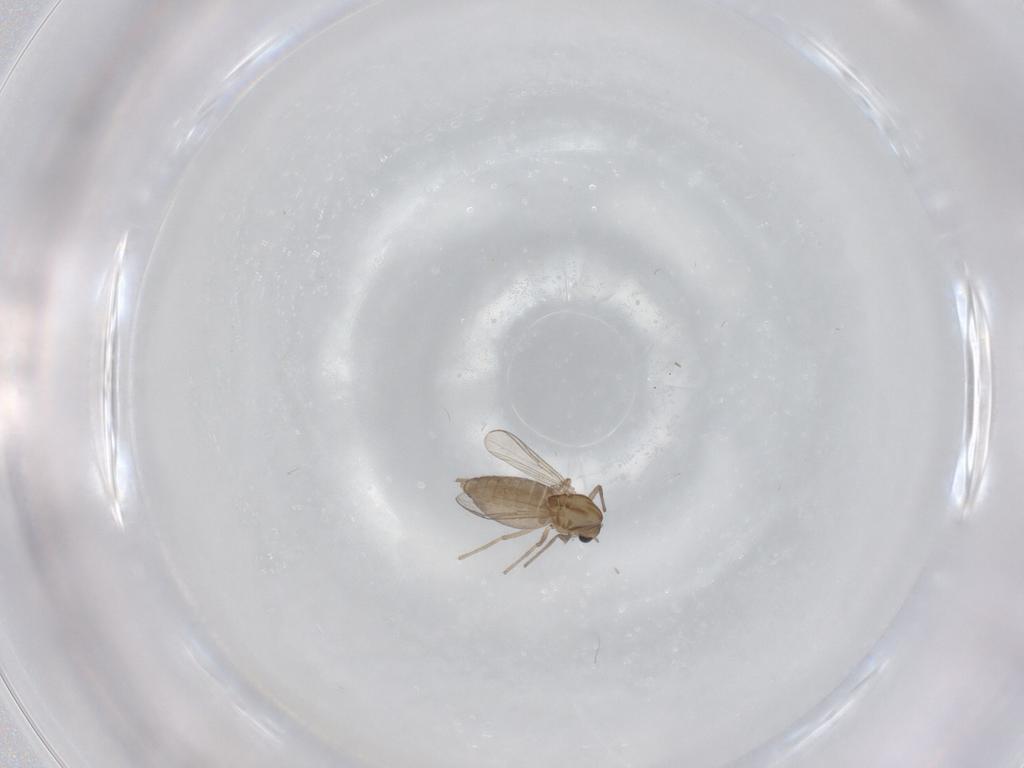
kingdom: Animalia
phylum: Arthropoda
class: Insecta
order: Diptera
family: Chironomidae
